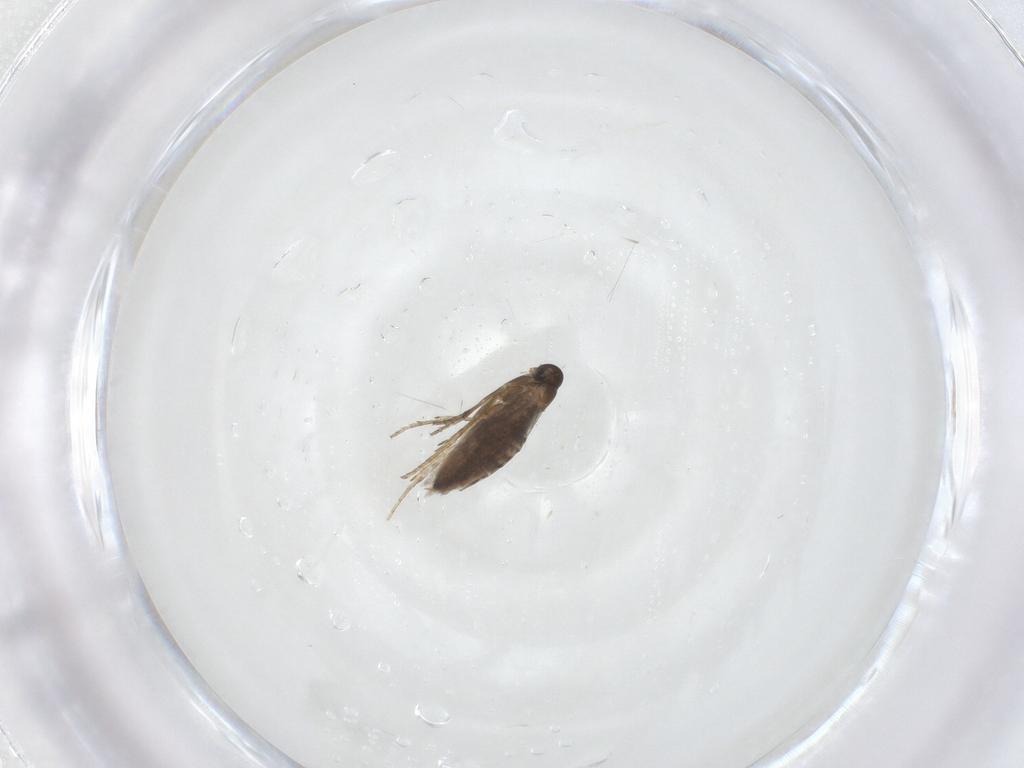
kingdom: Animalia
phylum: Arthropoda
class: Insecta
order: Lepidoptera
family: Heliozelidae
